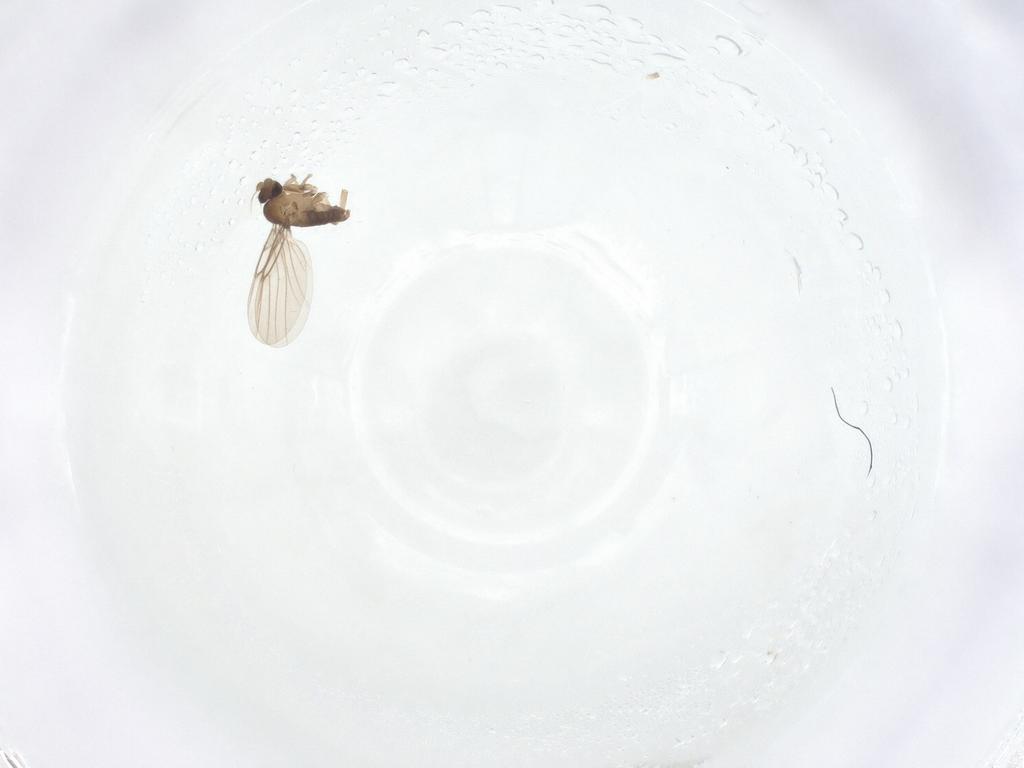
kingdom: Animalia
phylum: Arthropoda
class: Insecta
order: Diptera
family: Phoridae
